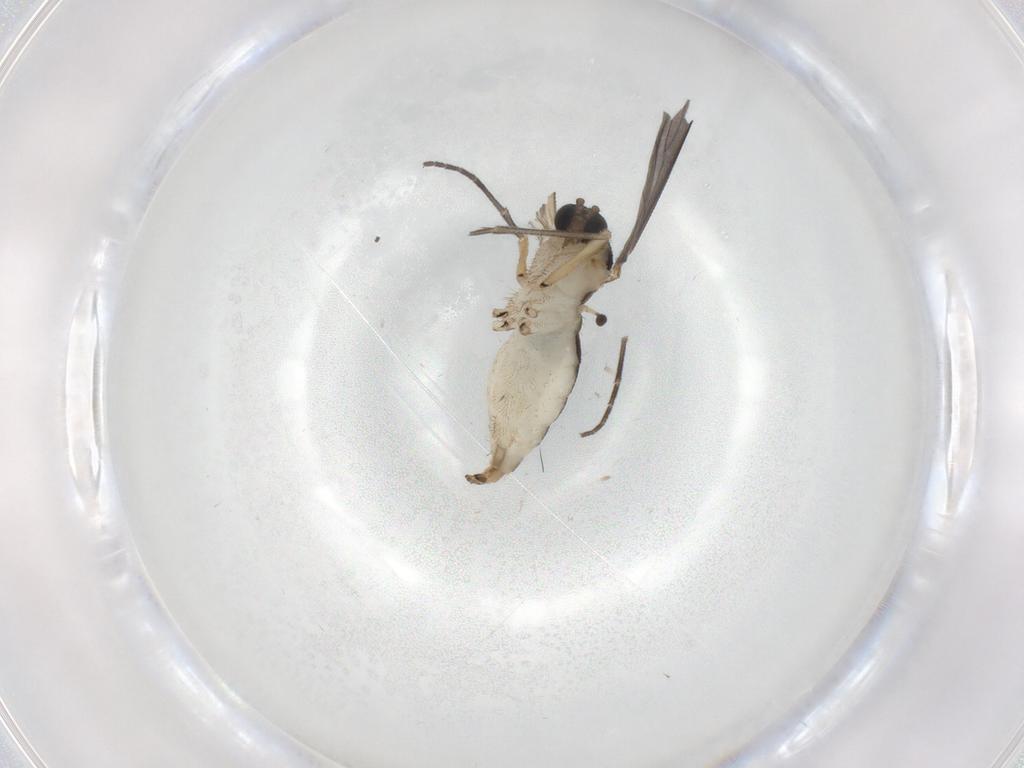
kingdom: Animalia
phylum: Arthropoda
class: Insecta
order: Diptera
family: Sciaridae
